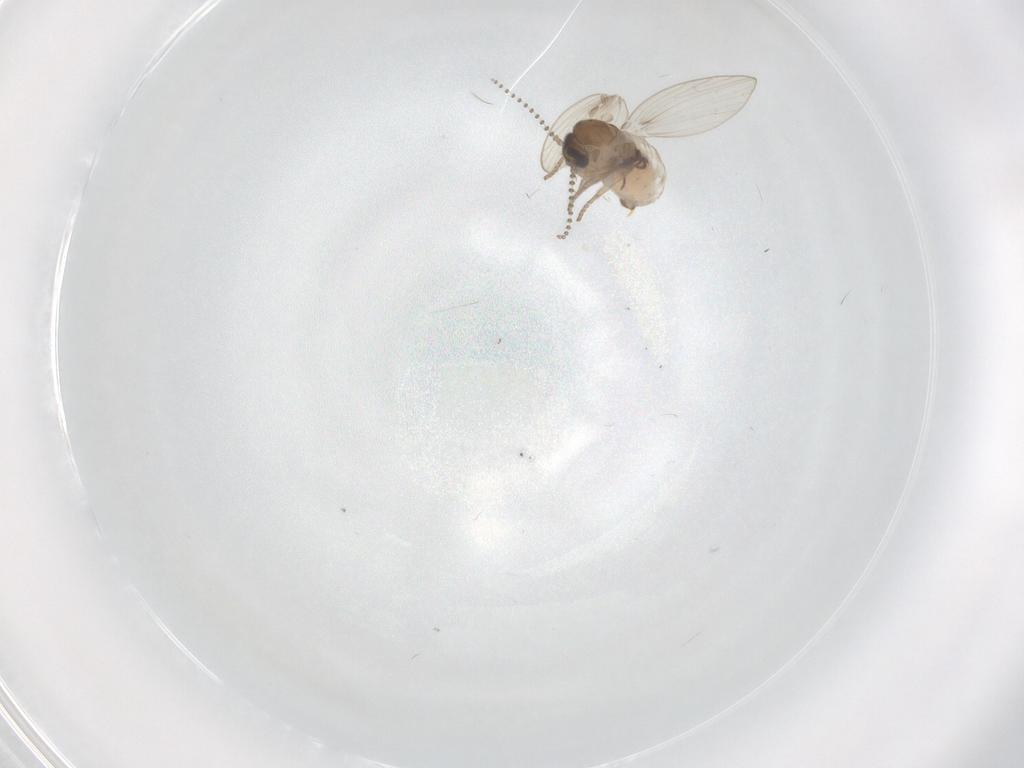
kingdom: Animalia
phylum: Arthropoda
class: Insecta
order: Diptera
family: Psychodidae
